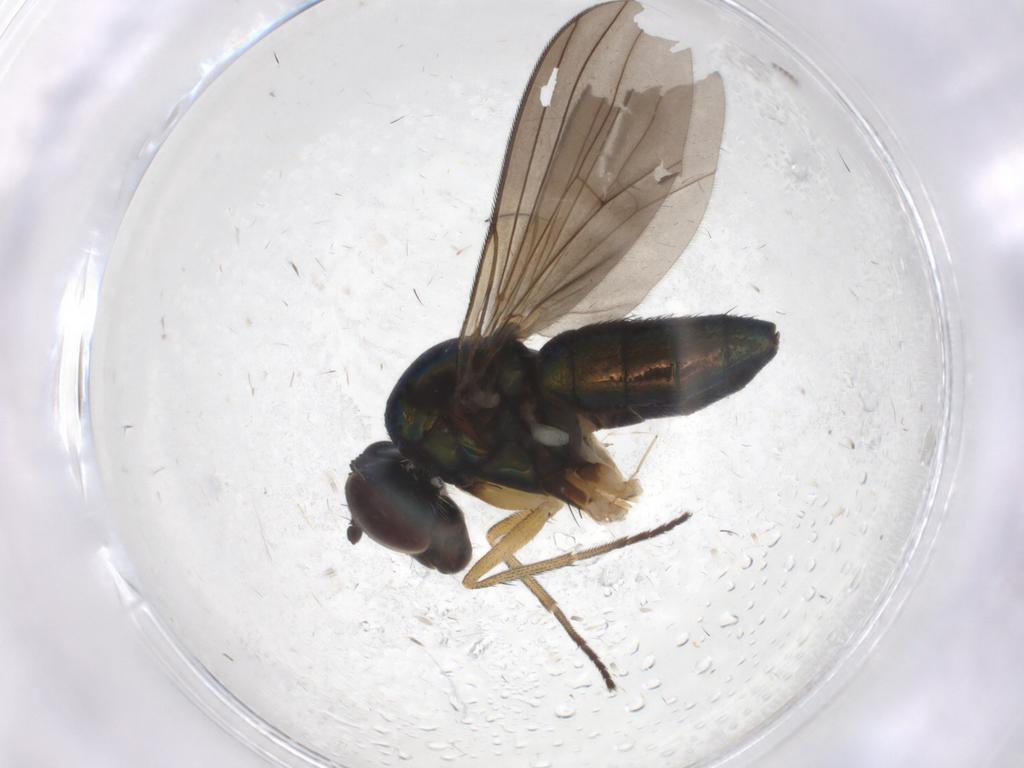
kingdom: Animalia
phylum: Arthropoda
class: Insecta
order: Diptera
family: Dolichopodidae
